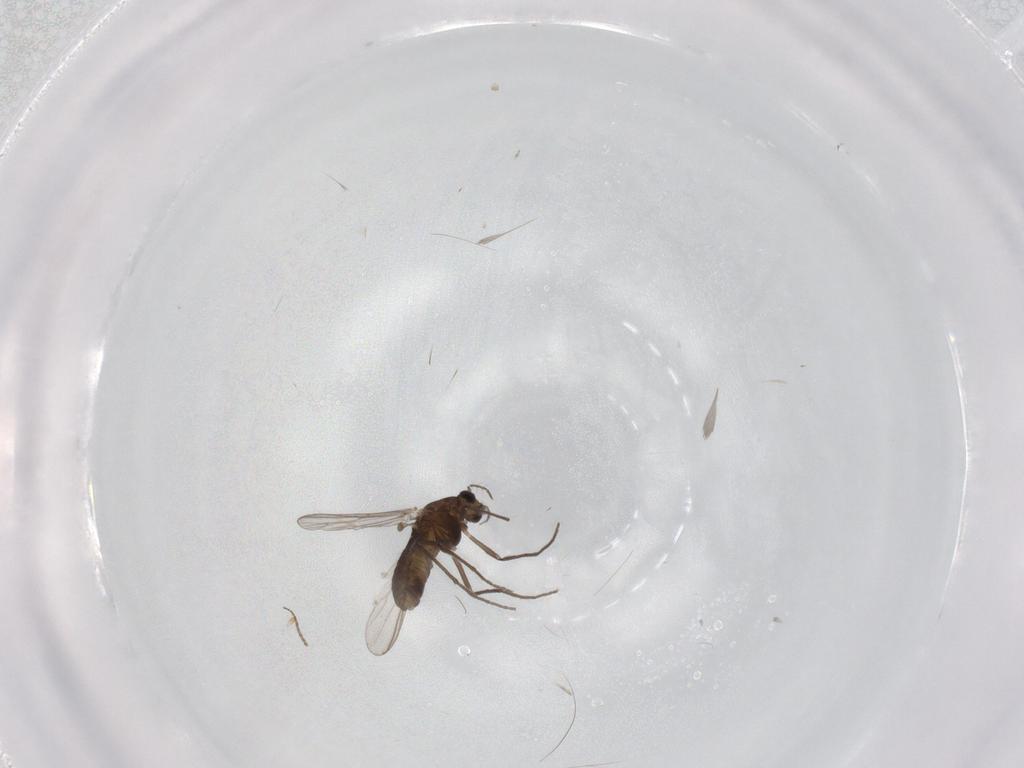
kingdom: Animalia
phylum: Arthropoda
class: Insecta
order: Diptera
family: Chironomidae
